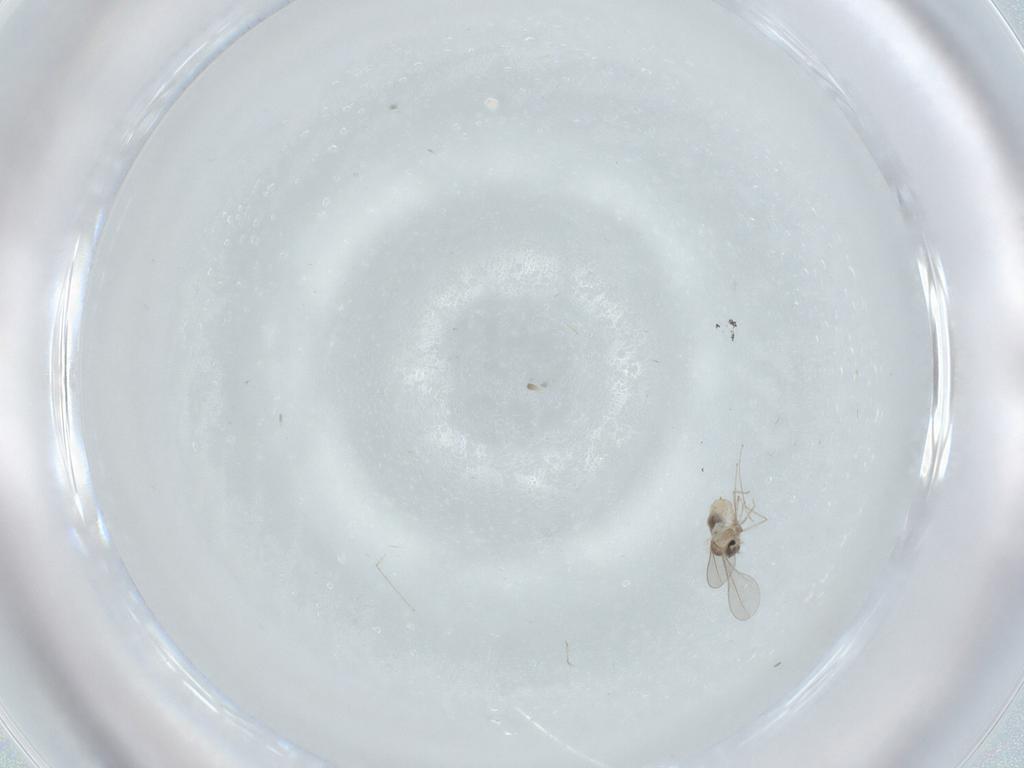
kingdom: Animalia
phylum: Arthropoda
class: Insecta
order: Diptera
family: Cecidomyiidae
